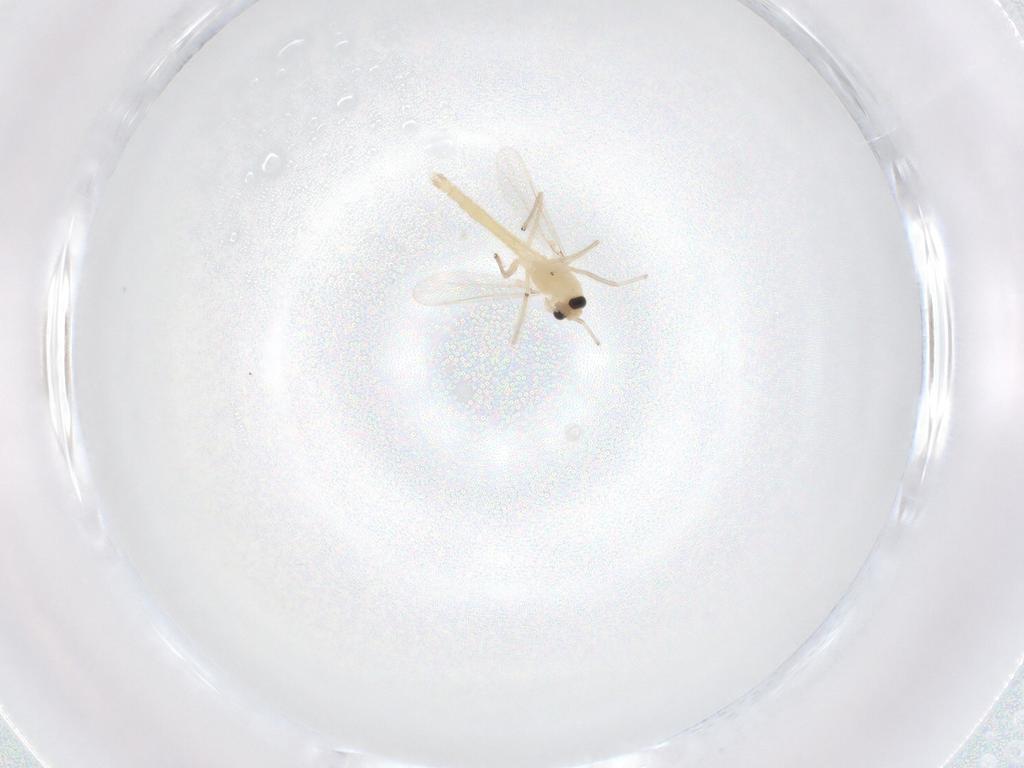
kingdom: Animalia
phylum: Arthropoda
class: Insecta
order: Diptera
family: Chironomidae
